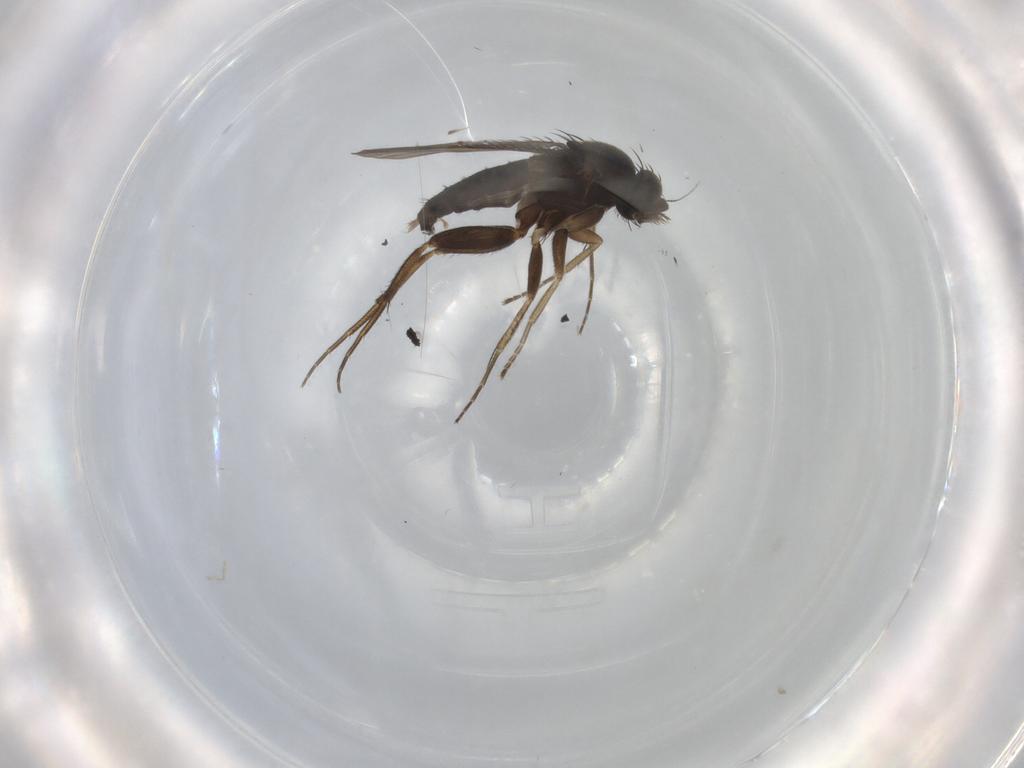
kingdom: Animalia
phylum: Arthropoda
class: Insecta
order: Diptera
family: Phoridae
